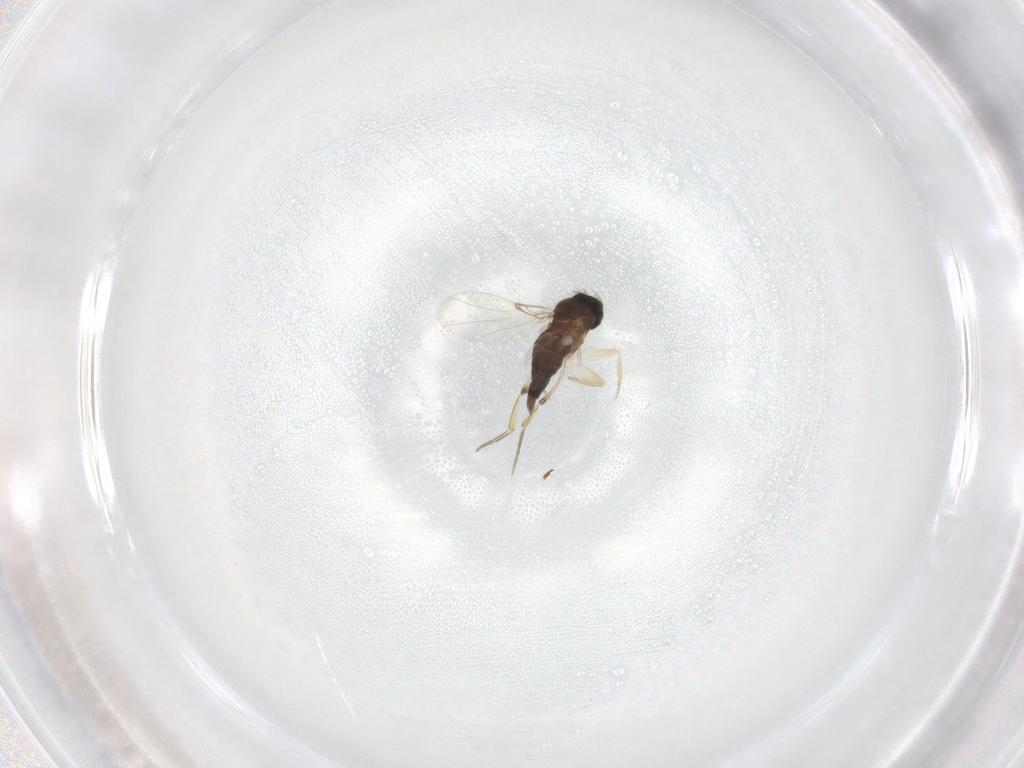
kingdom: Animalia
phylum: Arthropoda
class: Insecta
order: Diptera
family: Phoridae
